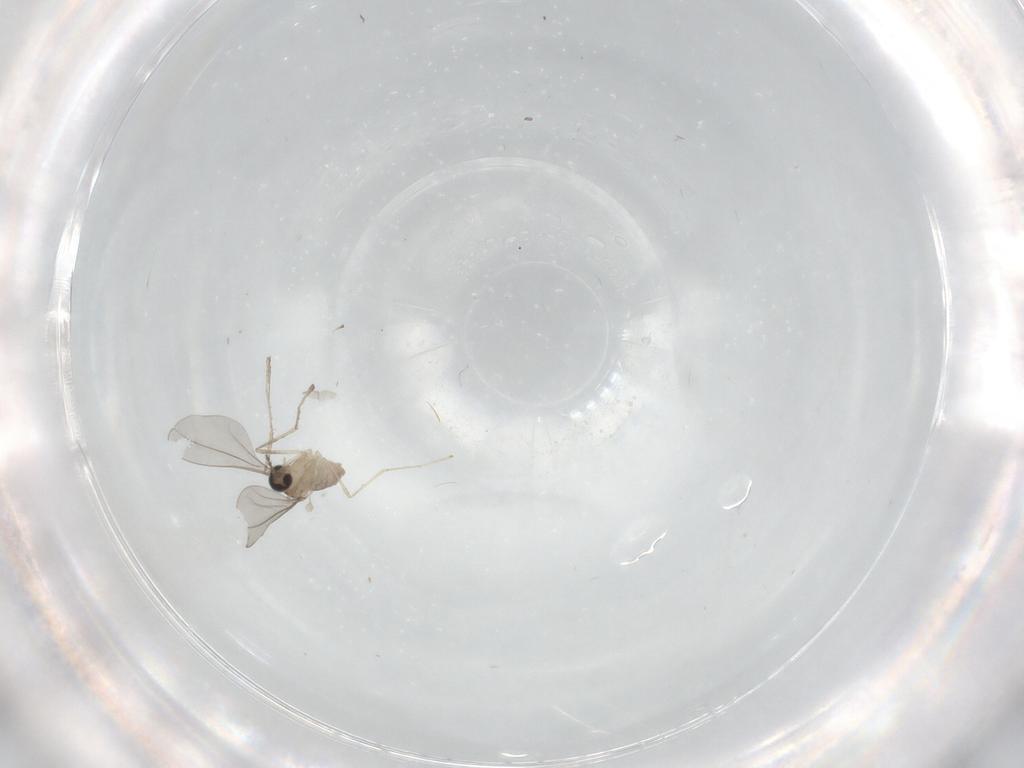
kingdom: Animalia
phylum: Arthropoda
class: Insecta
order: Diptera
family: Cecidomyiidae
